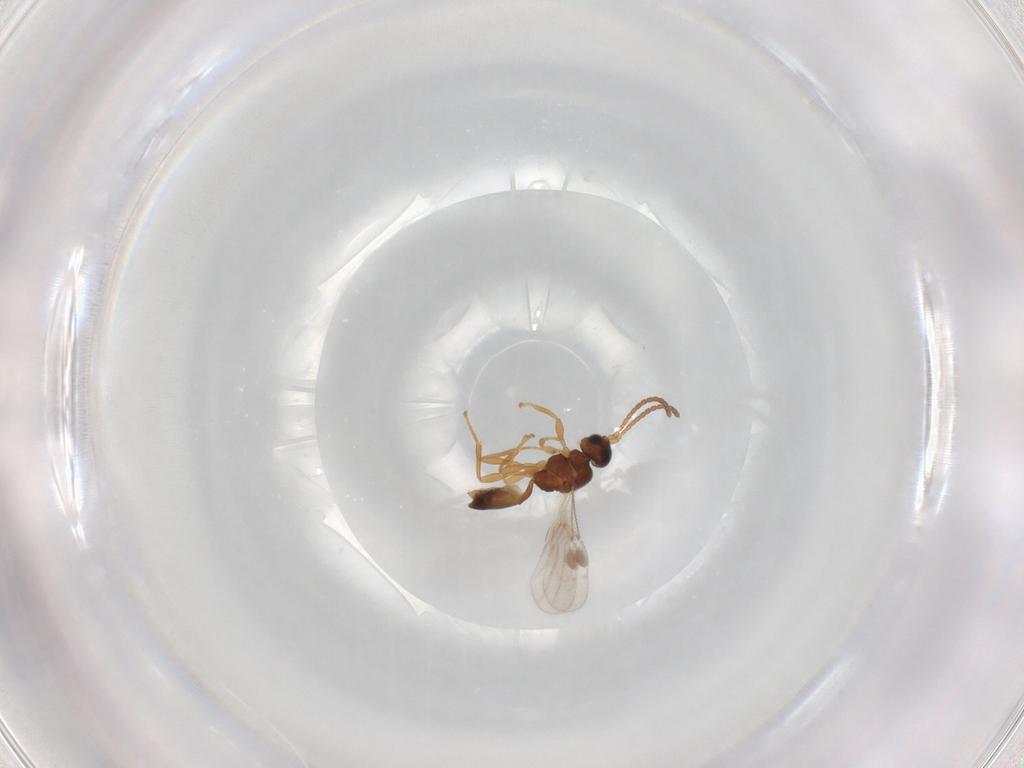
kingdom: Animalia
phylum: Arthropoda
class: Insecta
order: Hymenoptera
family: Braconidae
